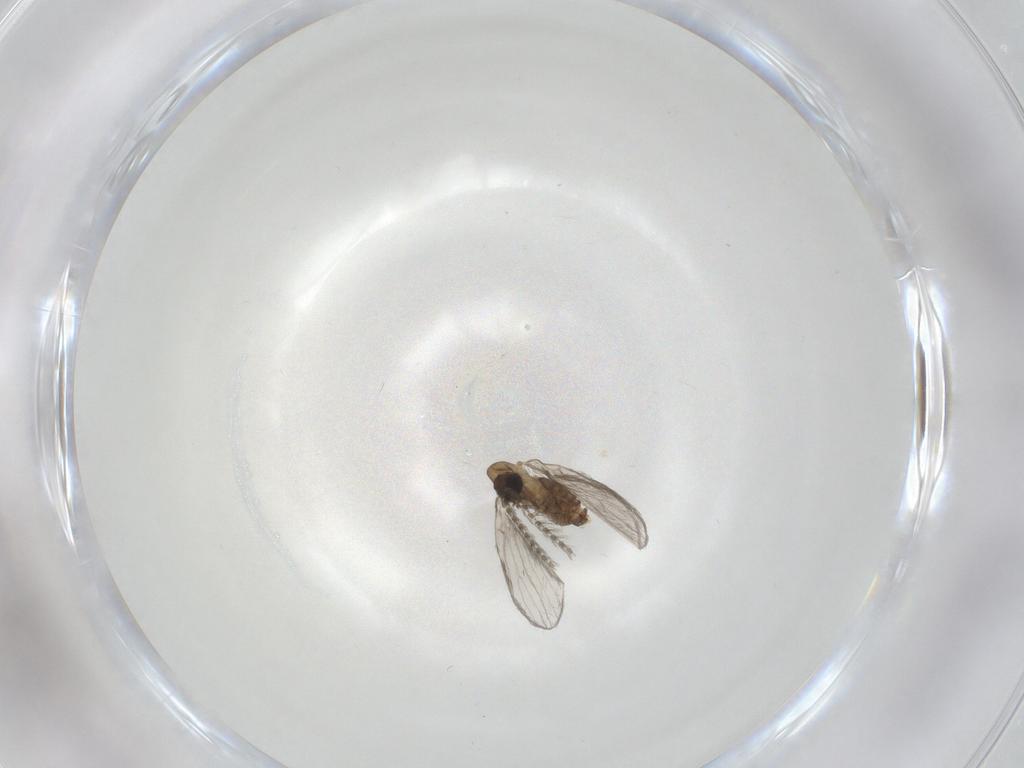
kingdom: Animalia
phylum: Arthropoda
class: Insecta
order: Diptera
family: Psychodidae
